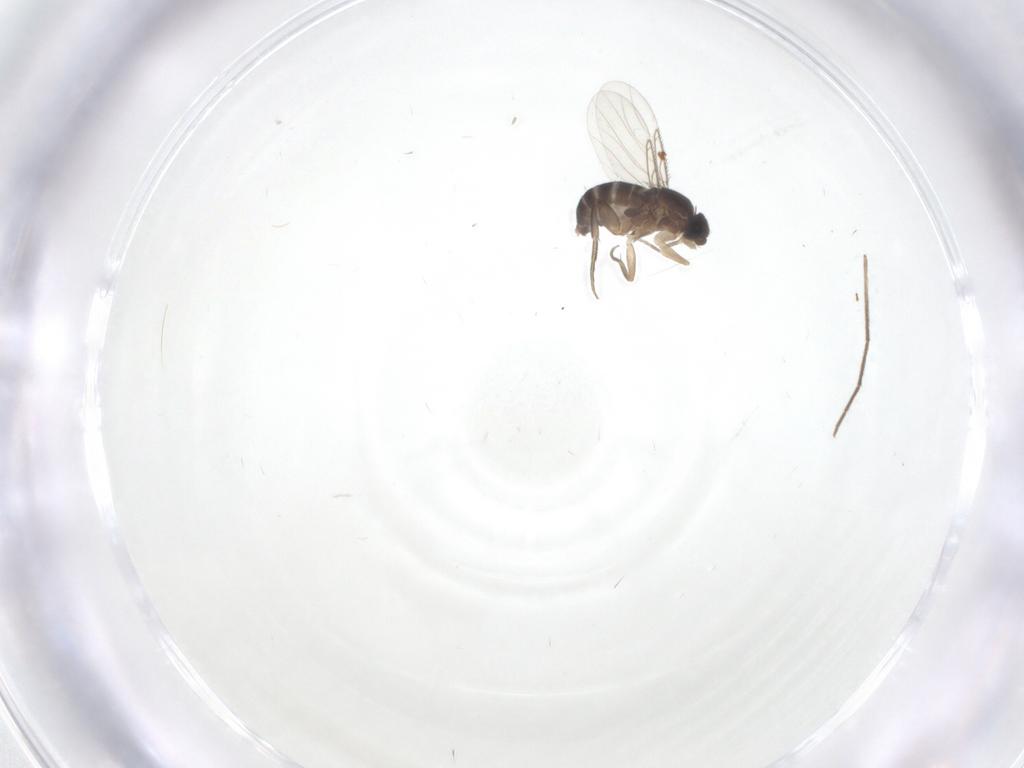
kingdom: Animalia
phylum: Arthropoda
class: Insecta
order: Diptera
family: Phoridae
